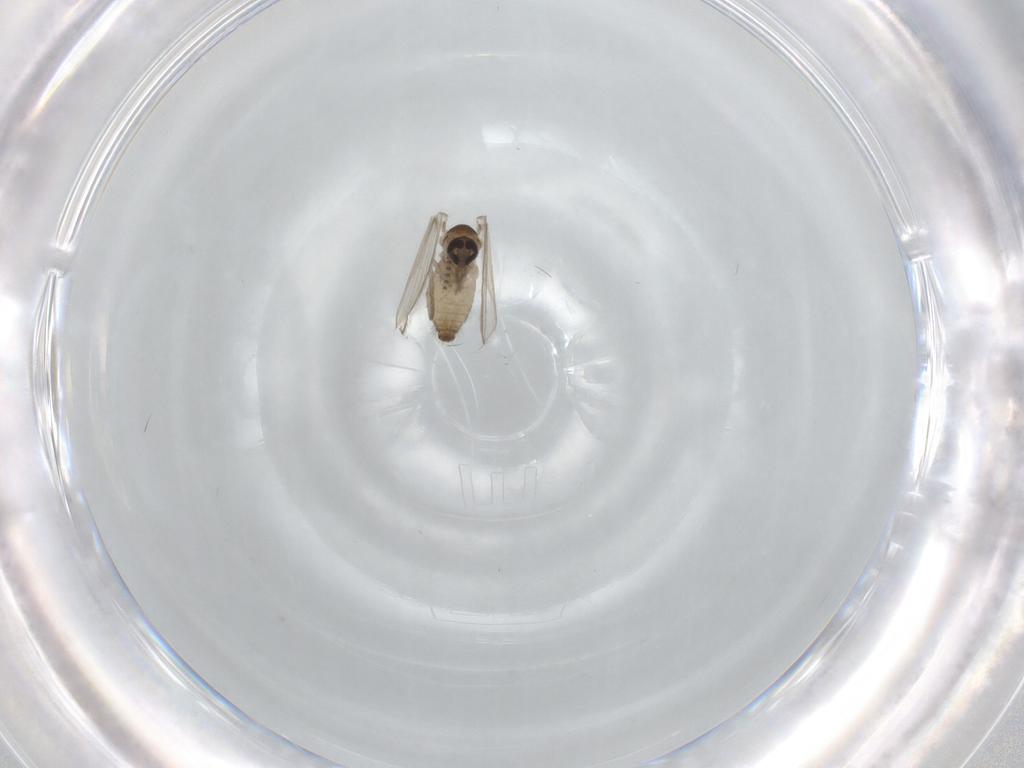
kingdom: Animalia
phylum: Arthropoda
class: Insecta
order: Diptera
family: Psychodidae
